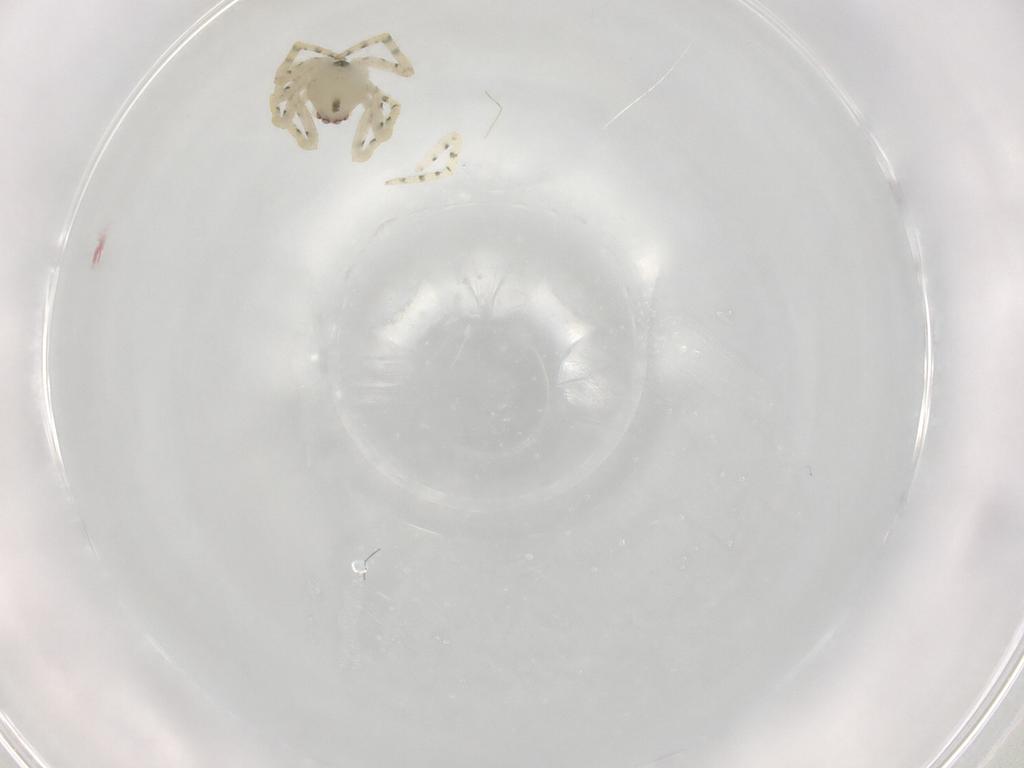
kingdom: Animalia
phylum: Arthropoda
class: Arachnida
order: Araneae
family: Theridiidae
